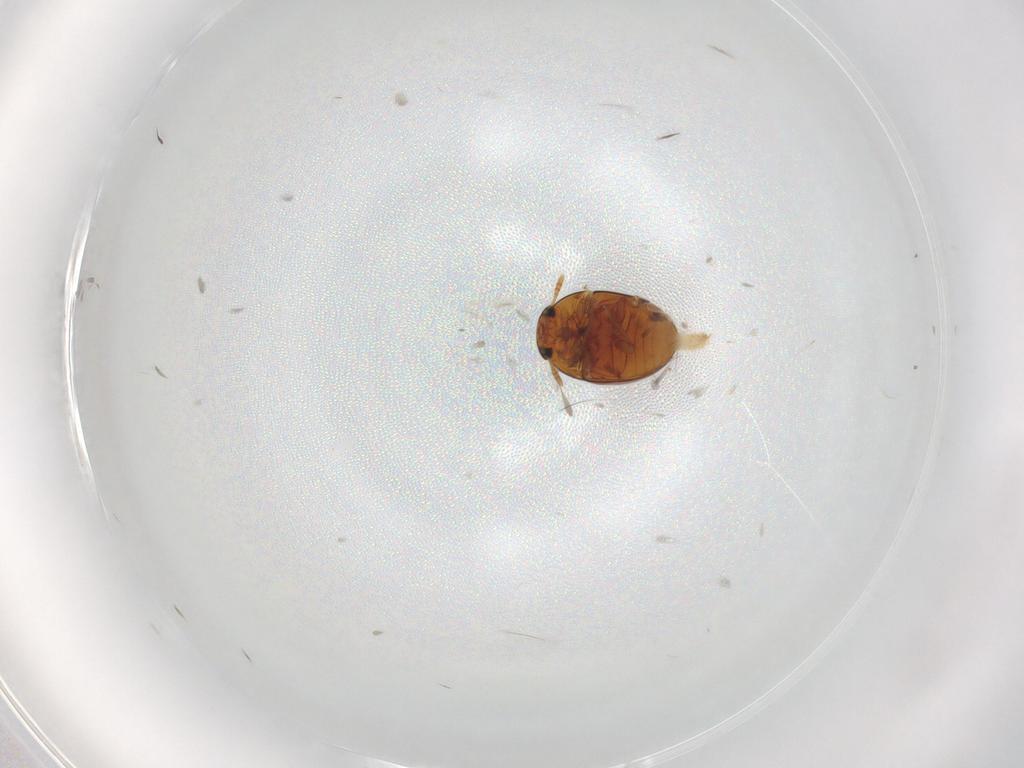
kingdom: Animalia
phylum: Arthropoda
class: Insecta
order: Coleoptera
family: Phalacridae
